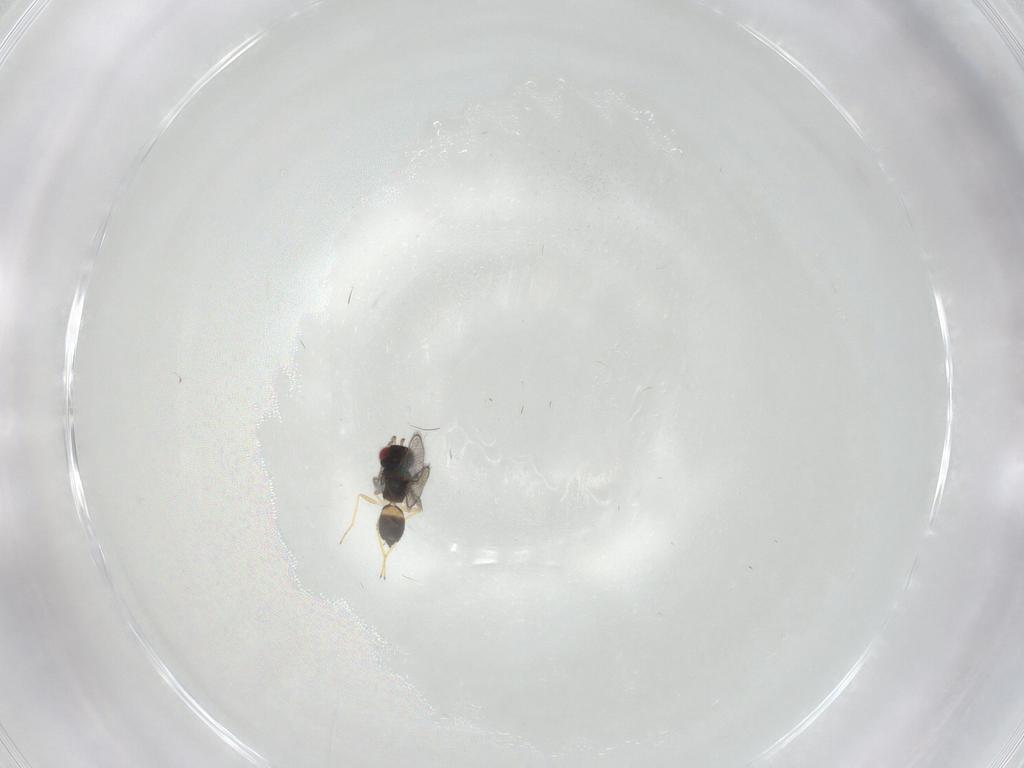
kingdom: Animalia
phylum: Arthropoda
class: Insecta
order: Hymenoptera
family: Eulophidae
